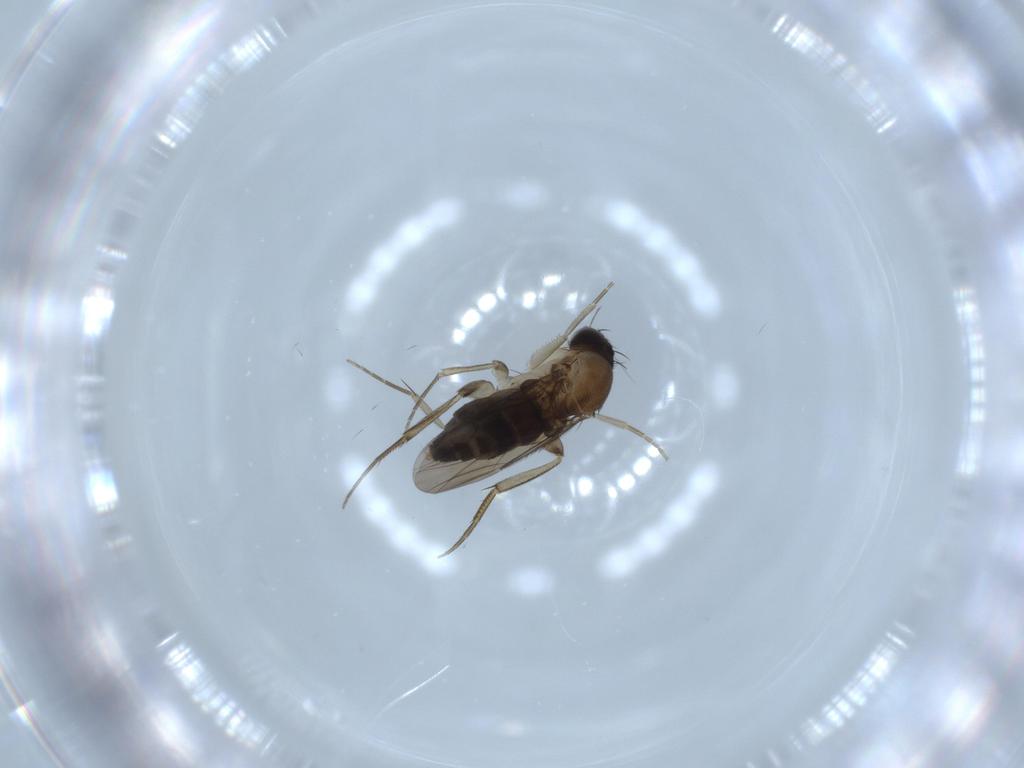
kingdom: Animalia
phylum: Arthropoda
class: Insecta
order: Diptera
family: Phoridae
